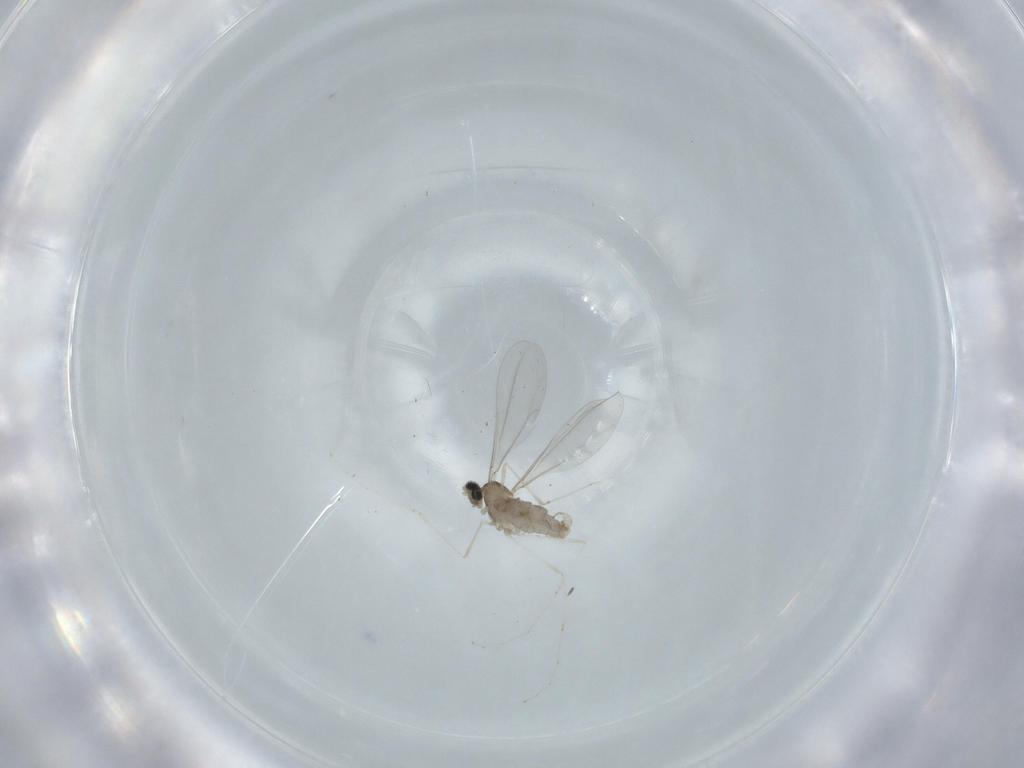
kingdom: Animalia
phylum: Arthropoda
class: Insecta
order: Diptera
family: Cecidomyiidae
